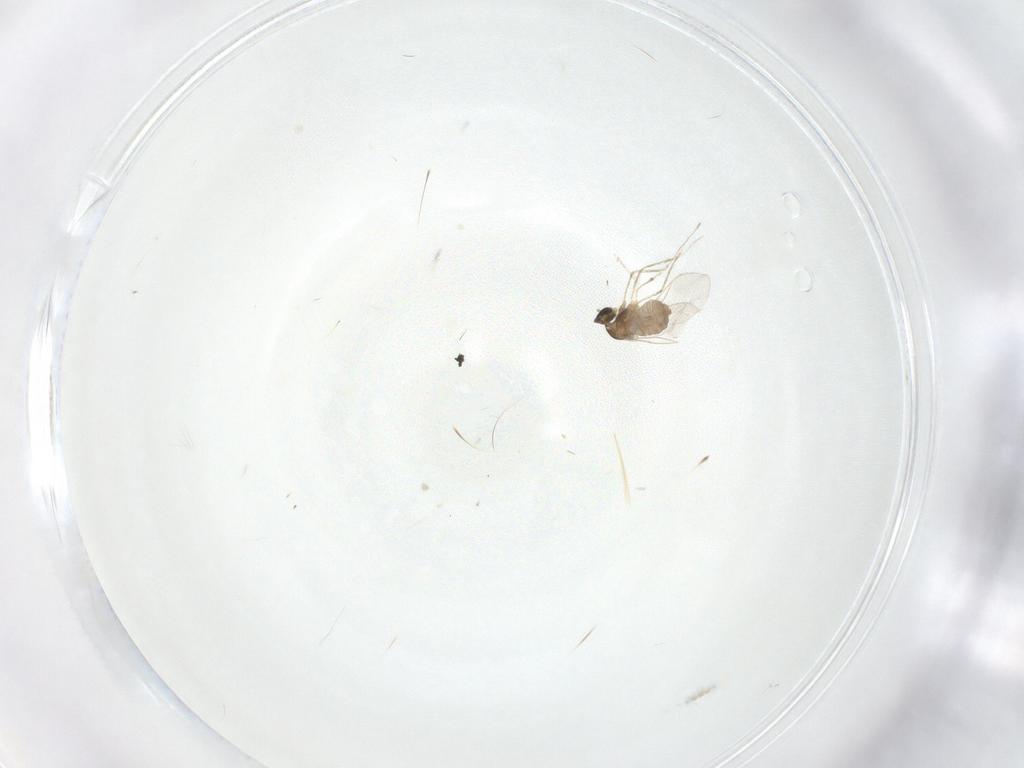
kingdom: Animalia
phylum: Arthropoda
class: Insecta
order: Diptera
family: Cecidomyiidae
